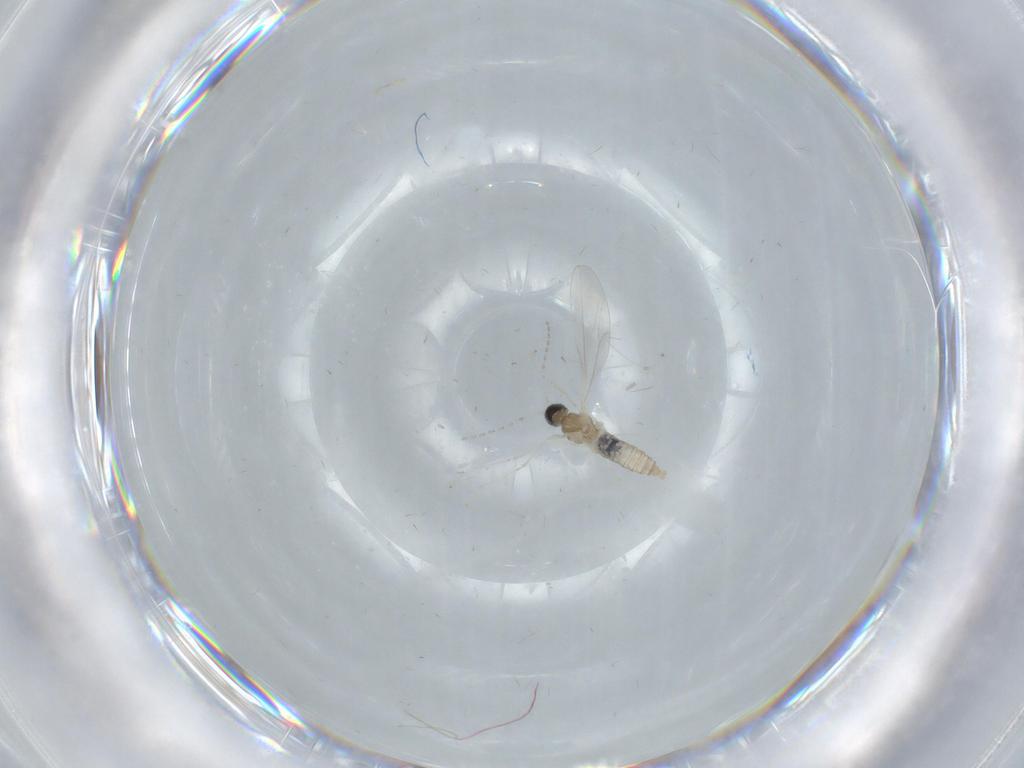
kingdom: Animalia
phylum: Arthropoda
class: Insecta
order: Diptera
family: Cecidomyiidae
